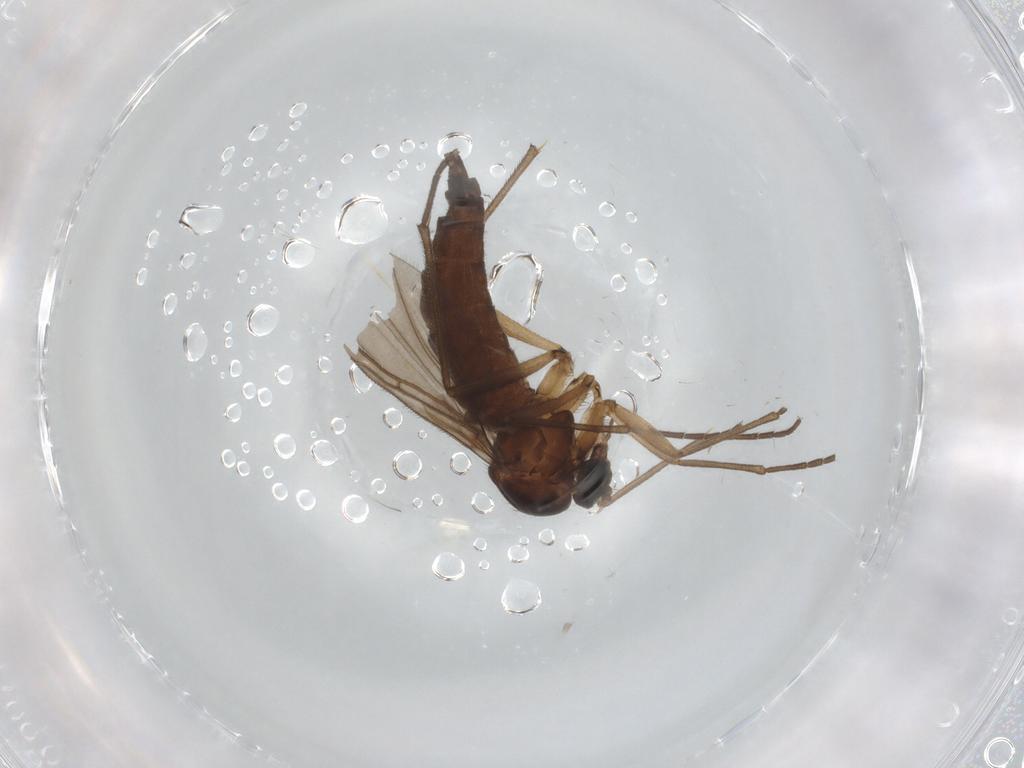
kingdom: Animalia
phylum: Arthropoda
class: Insecta
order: Diptera
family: Sciaridae
